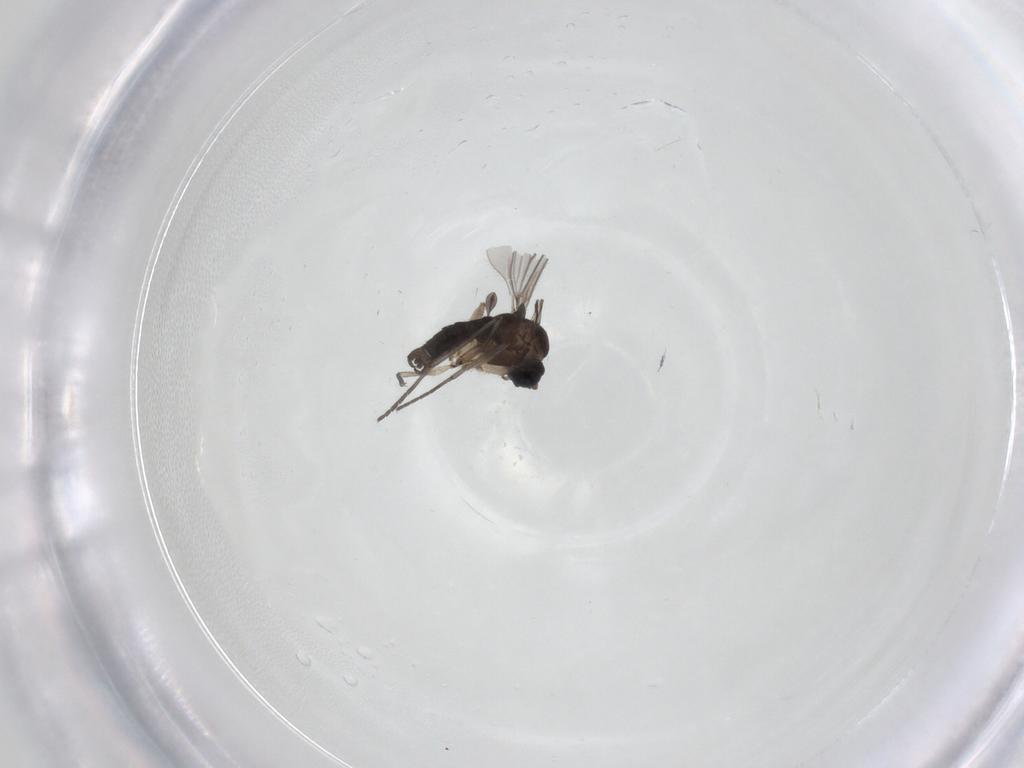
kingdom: Animalia
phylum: Arthropoda
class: Insecta
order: Diptera
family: Sciaridae
